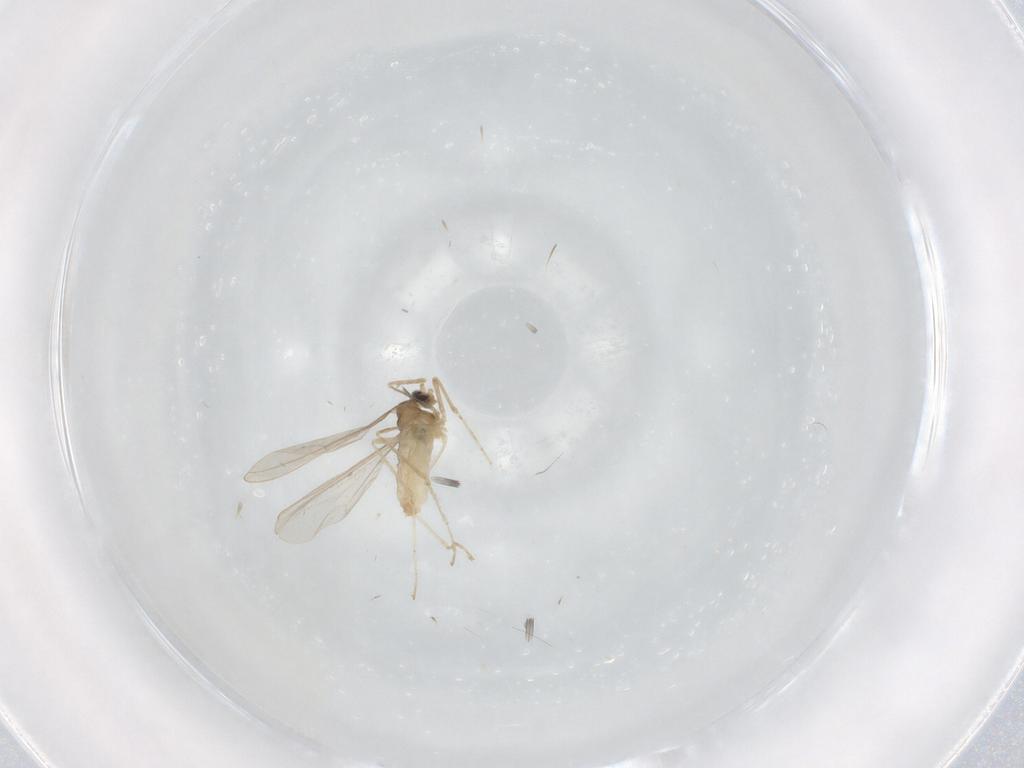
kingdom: Animalia
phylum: Arthropoda
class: Insecta
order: Diptera
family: Cecidomyiidae
